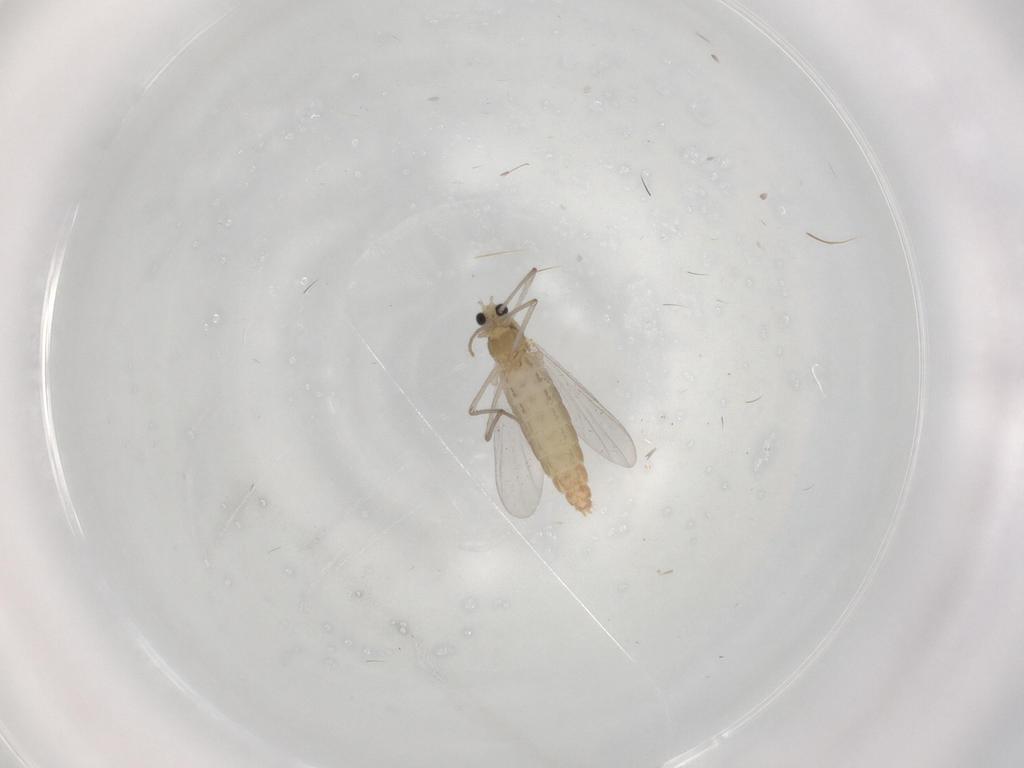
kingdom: Animalia
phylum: Arthropoda
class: Insecta
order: Diptera
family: Chironomidae
